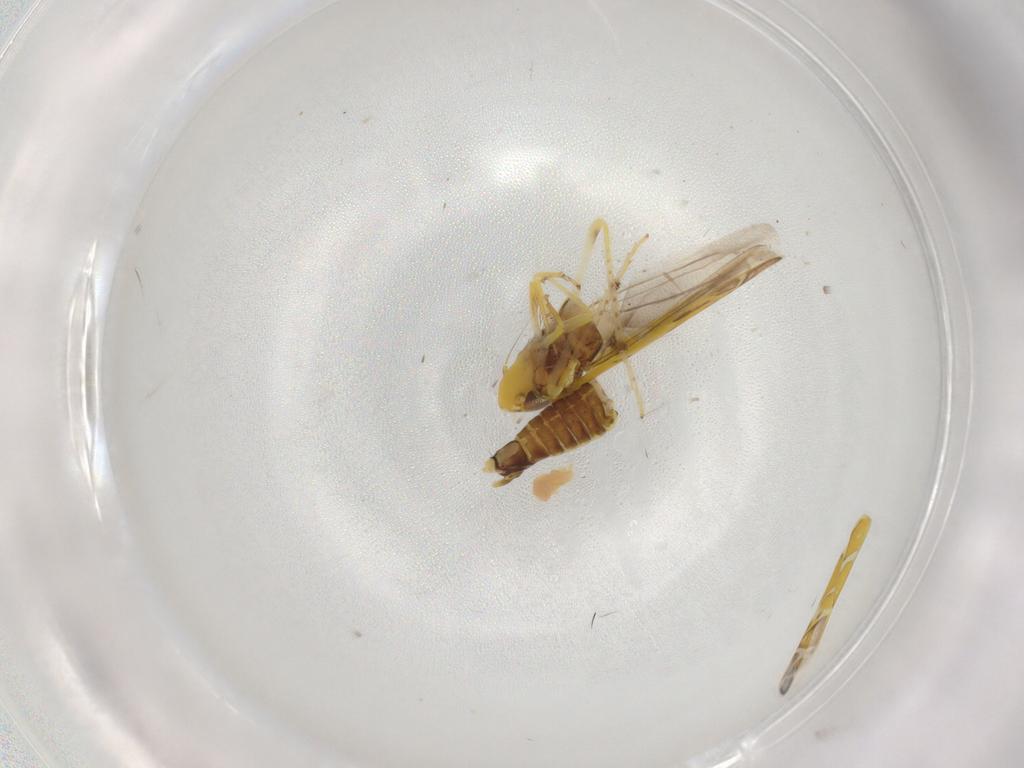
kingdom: Animalia
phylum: Arthropoda
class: Insecta
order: Hemiptera
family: Cicadellidae
